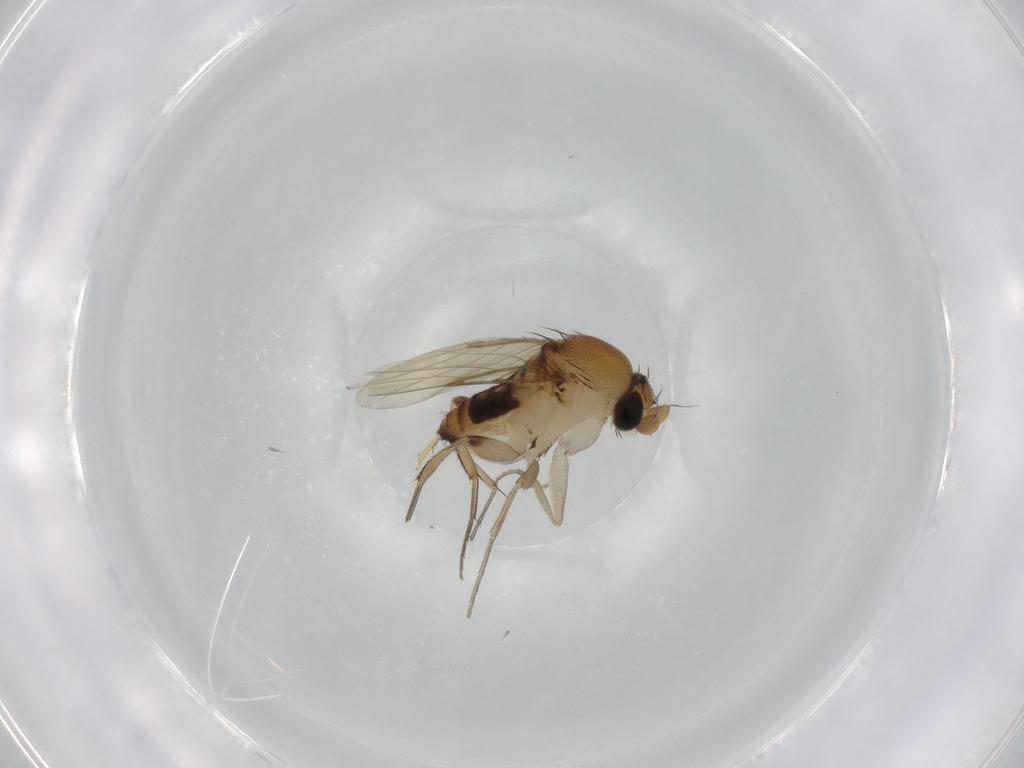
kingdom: Animalia
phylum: Arthropoda
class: Insecta
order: Diptera
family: Phoridae
